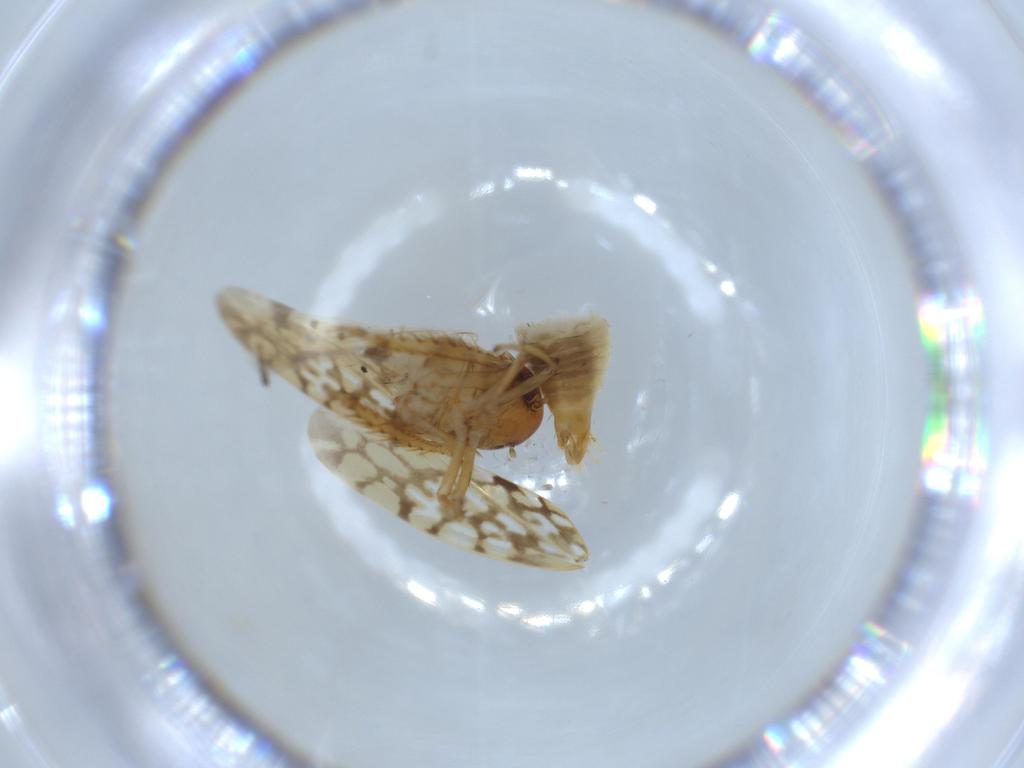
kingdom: Animalia
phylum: Arthropoda
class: Insecta
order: Hemiptera
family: Cicadellidae
